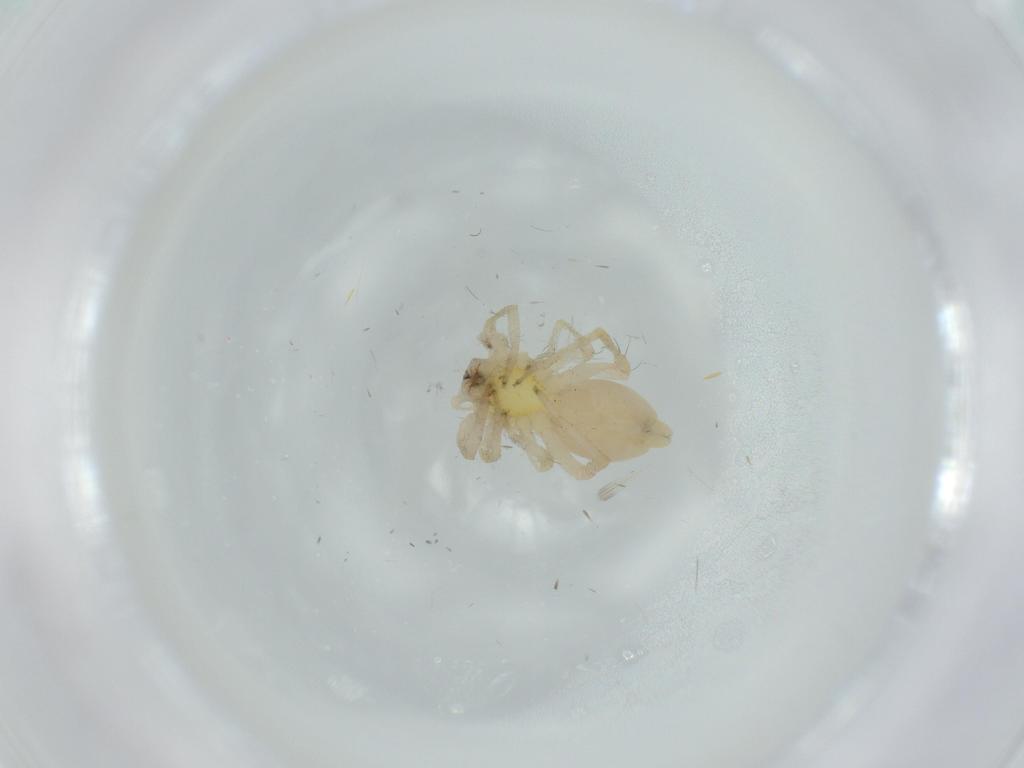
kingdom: Animalia
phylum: Arthropoda
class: Arachnida
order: Araneae
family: Anyphaenidae
